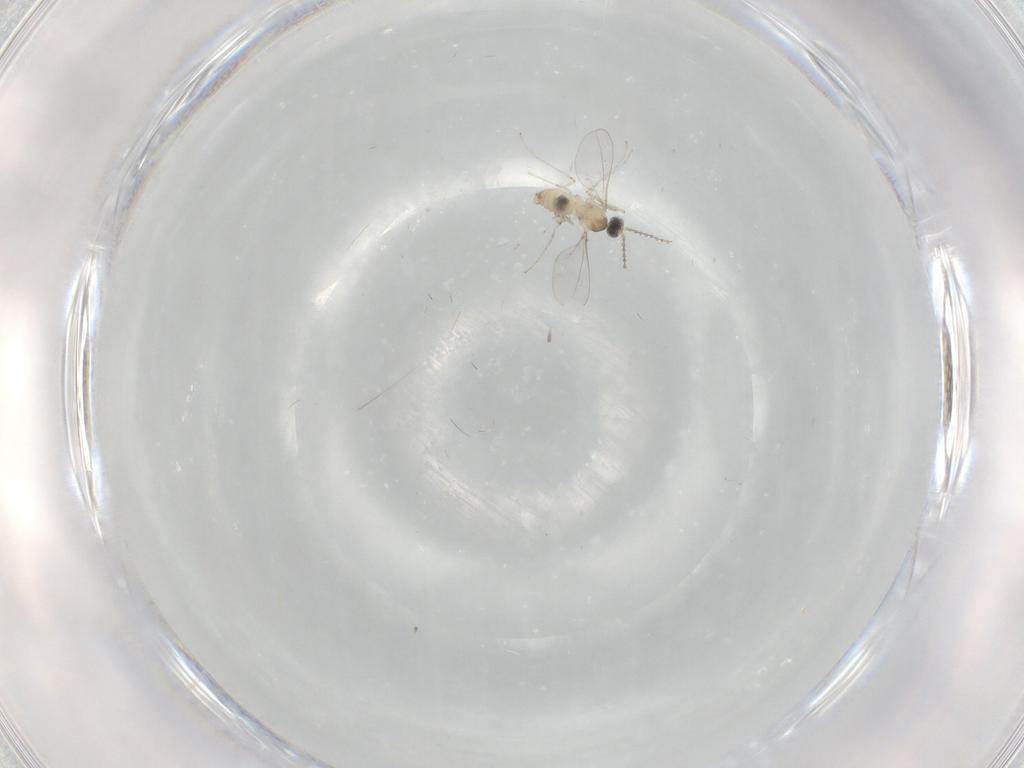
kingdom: Animalia
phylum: Arthropoda
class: Insecta
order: Diptera
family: Cecidomyiidae
